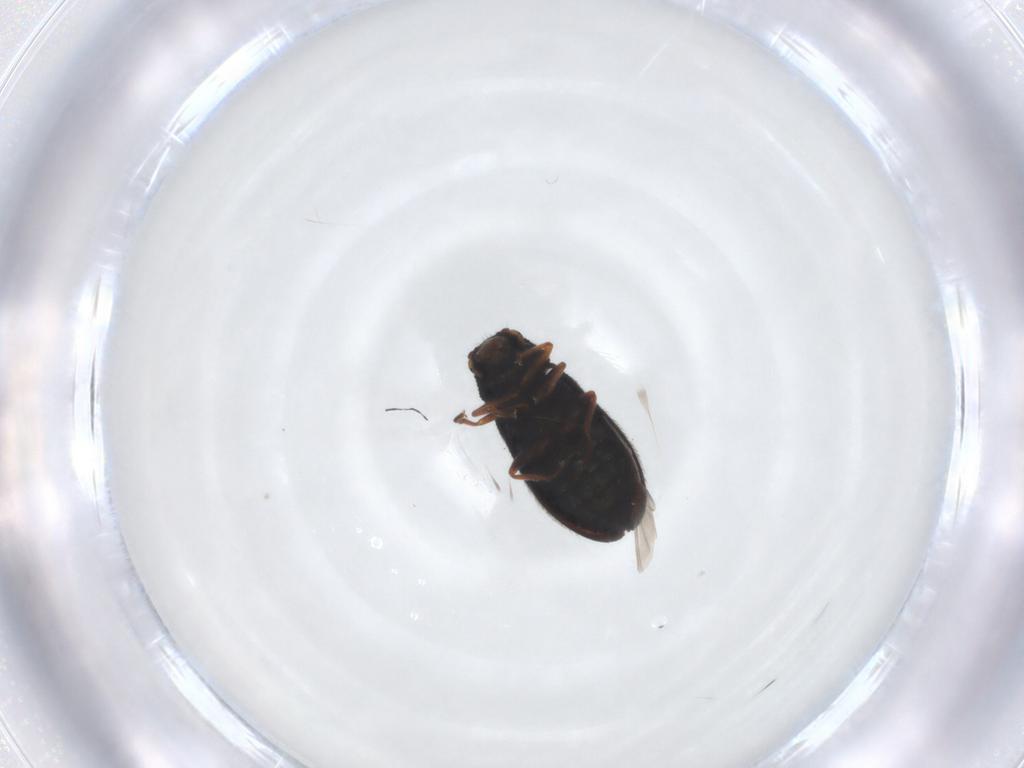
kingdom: Animalia
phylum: Arthropoda
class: Insecta
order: Coleoptera
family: Melyridae
